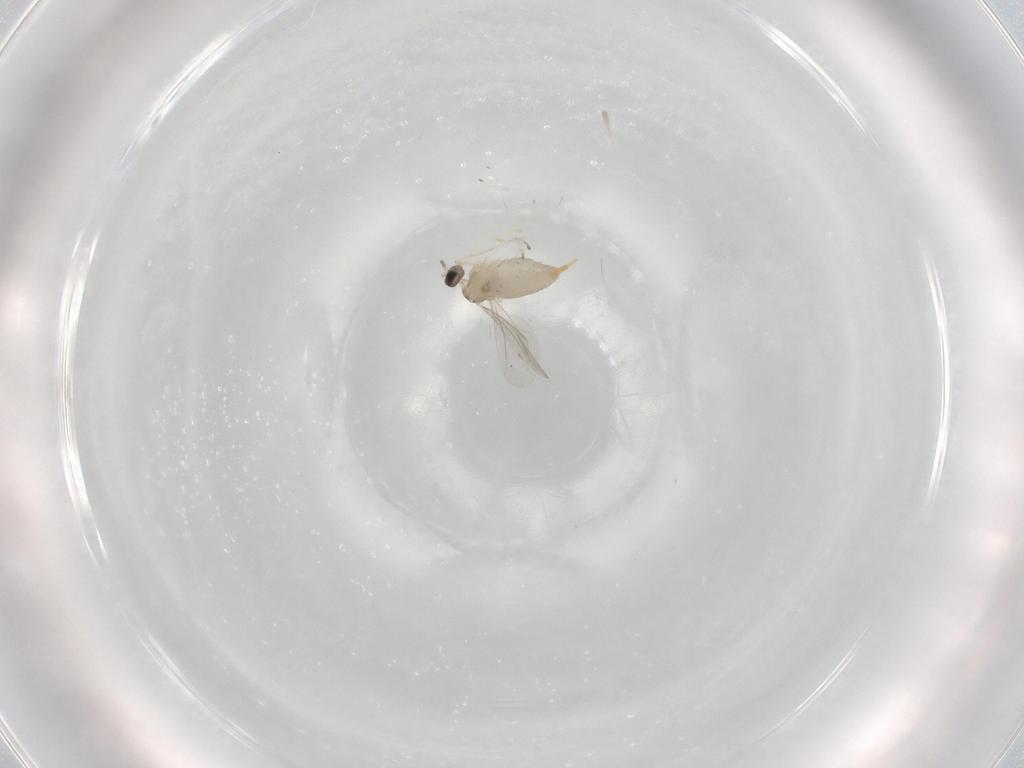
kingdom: Animalia
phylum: Arthropoda
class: Insecta
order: Diptera
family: Cecidomyiidae
